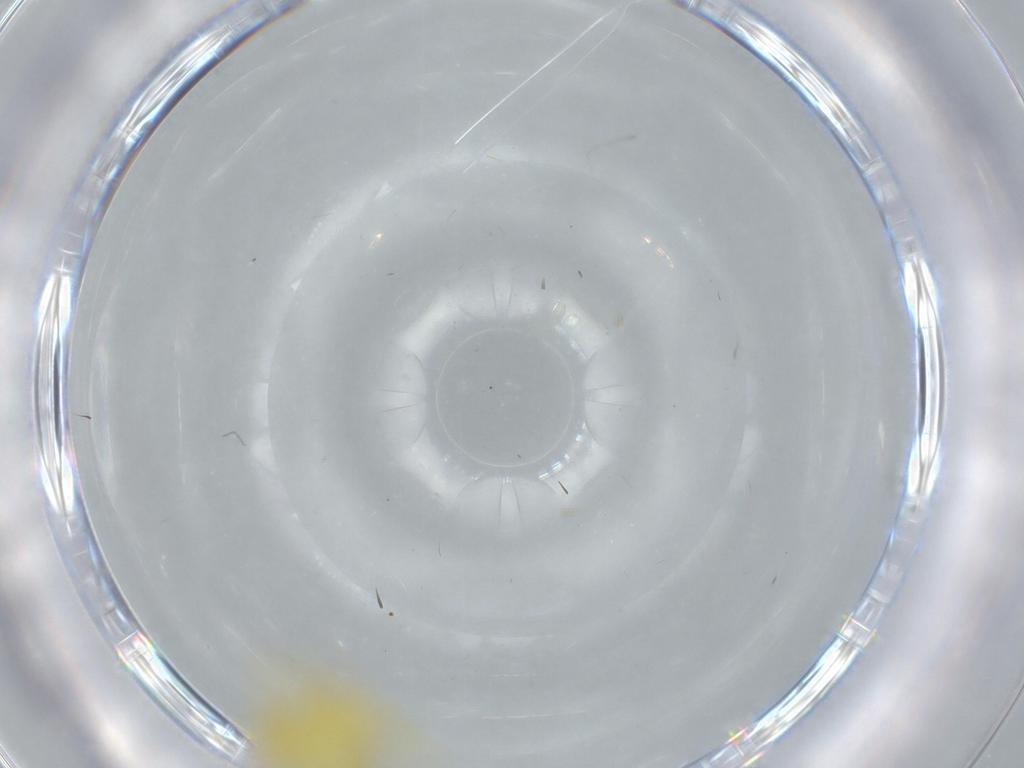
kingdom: Animalia
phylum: Arthropoda
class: Insecta
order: Hemiptera
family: Cicadellidae
